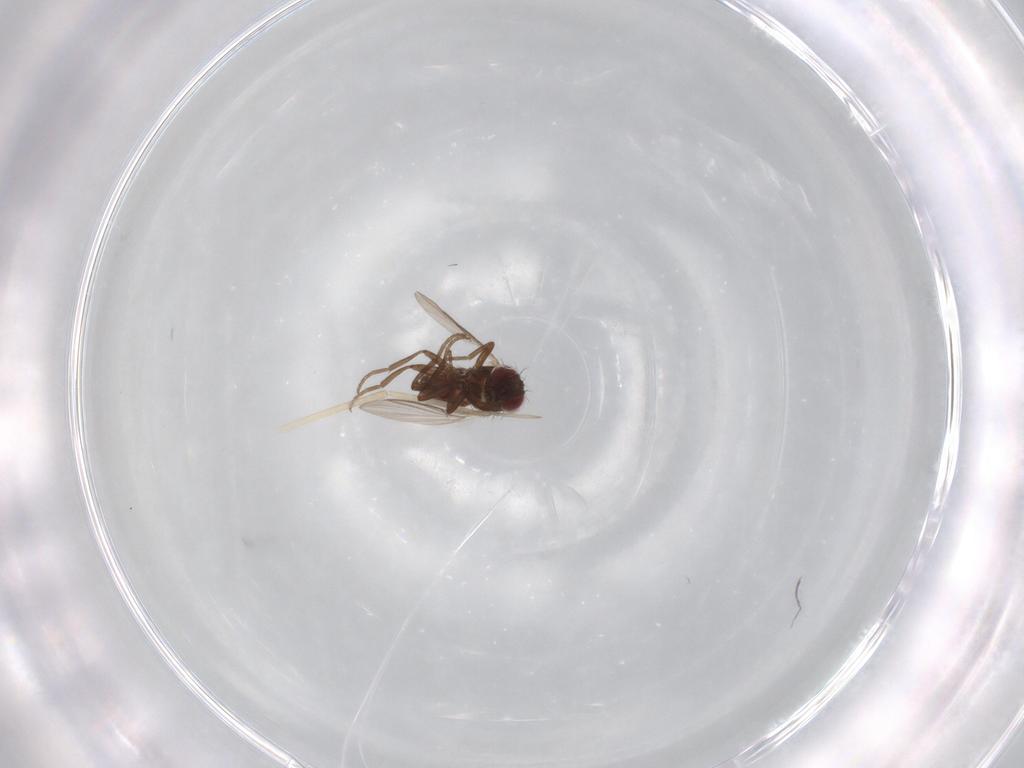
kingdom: Animalia
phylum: Arthropoda
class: Insecta
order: Diptera
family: Asilidae
